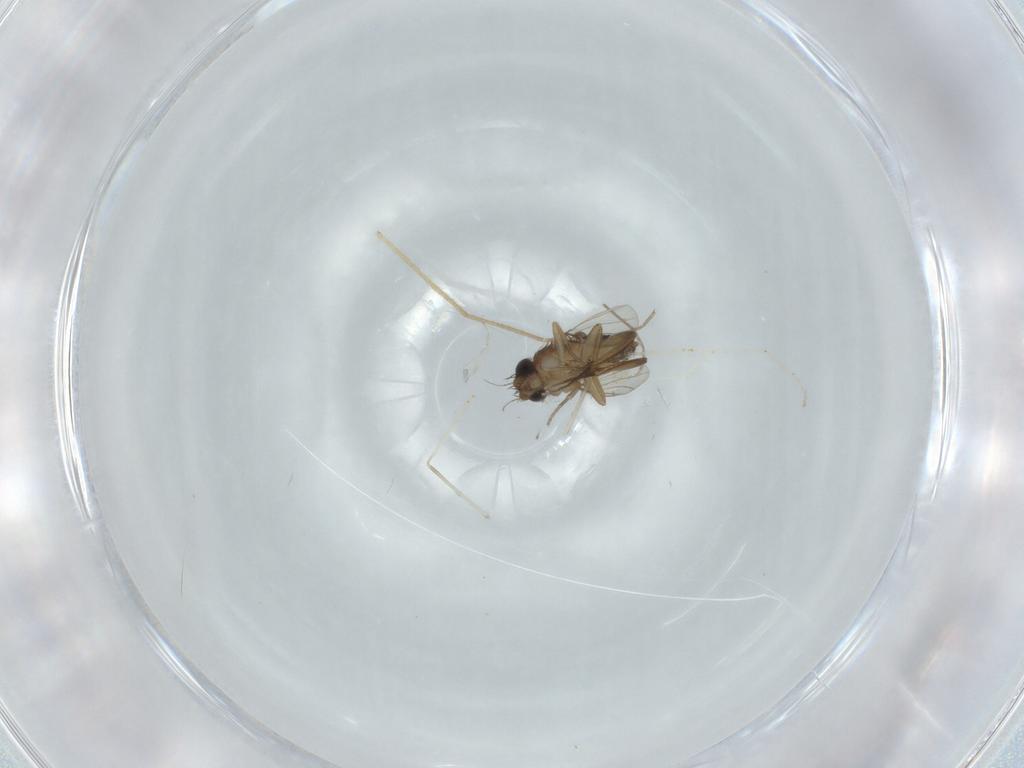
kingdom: Animalia
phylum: Arthropoda
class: Insecta
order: Diptera
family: Phoridae
